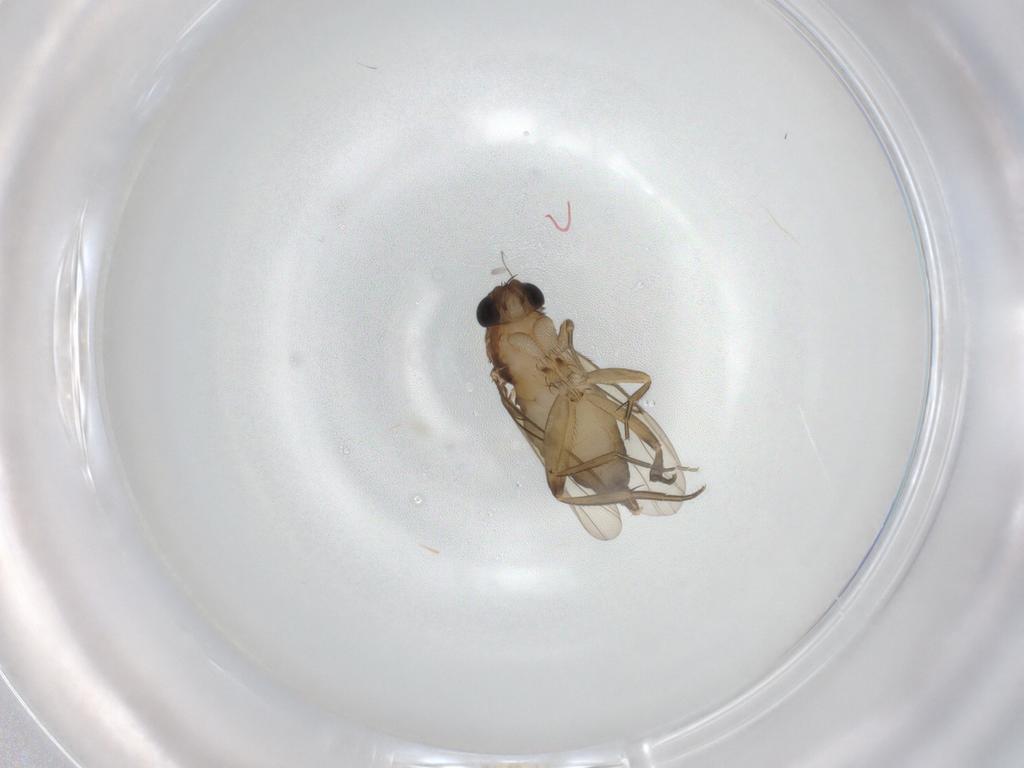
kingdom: Animalia
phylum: Arthropoda
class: Insecta
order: Diptera
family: Phoridae
